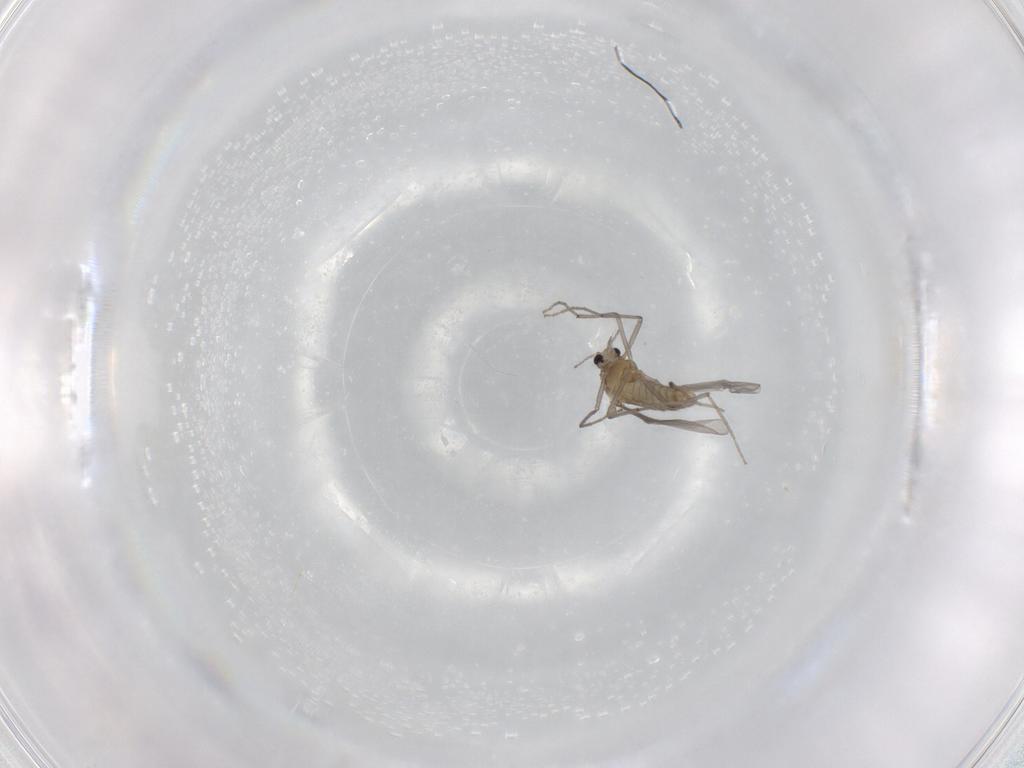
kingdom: Animalia
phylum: Arthropoda
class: Insecta
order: Diptera
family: Chironomidae
